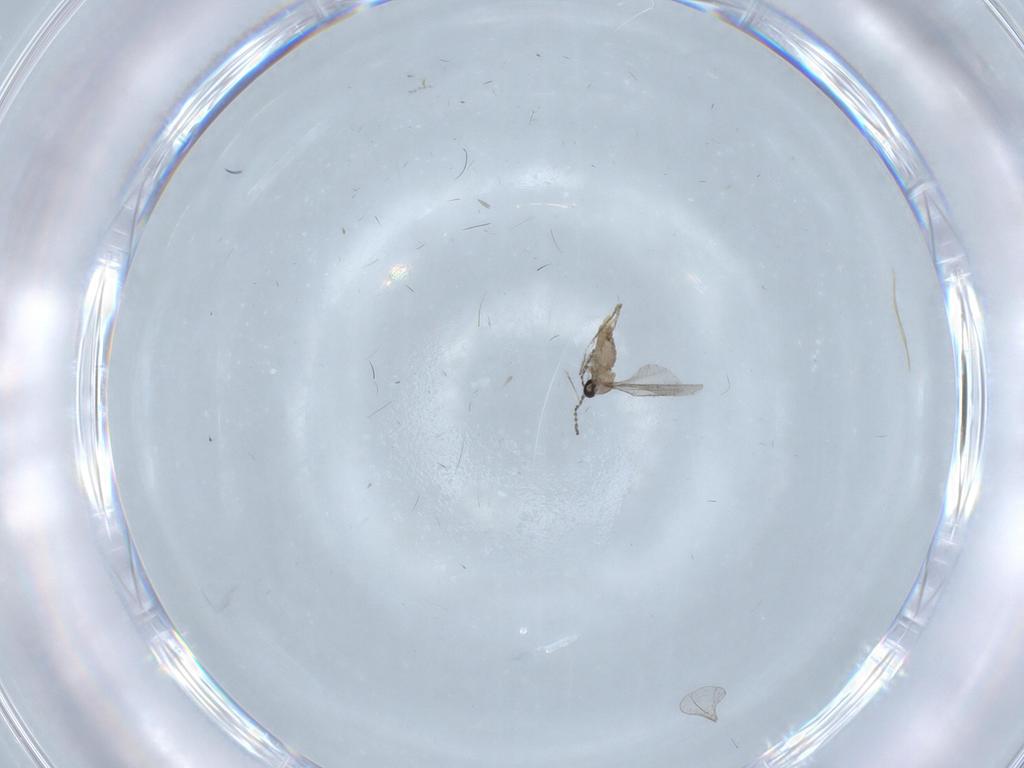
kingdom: Animalia
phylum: Arthropoda
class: Insecta
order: Diptera
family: Cecidomyiidae
